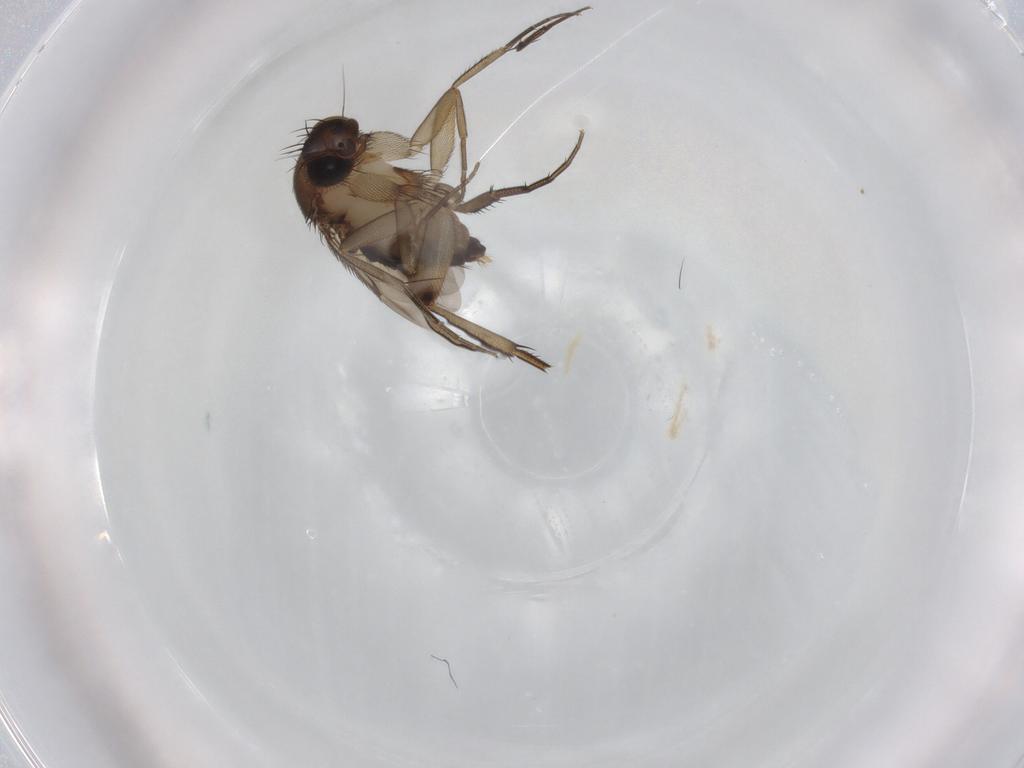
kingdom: Animalia
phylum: Arthropoda
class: Insecta
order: Diptera
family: Phoridae
